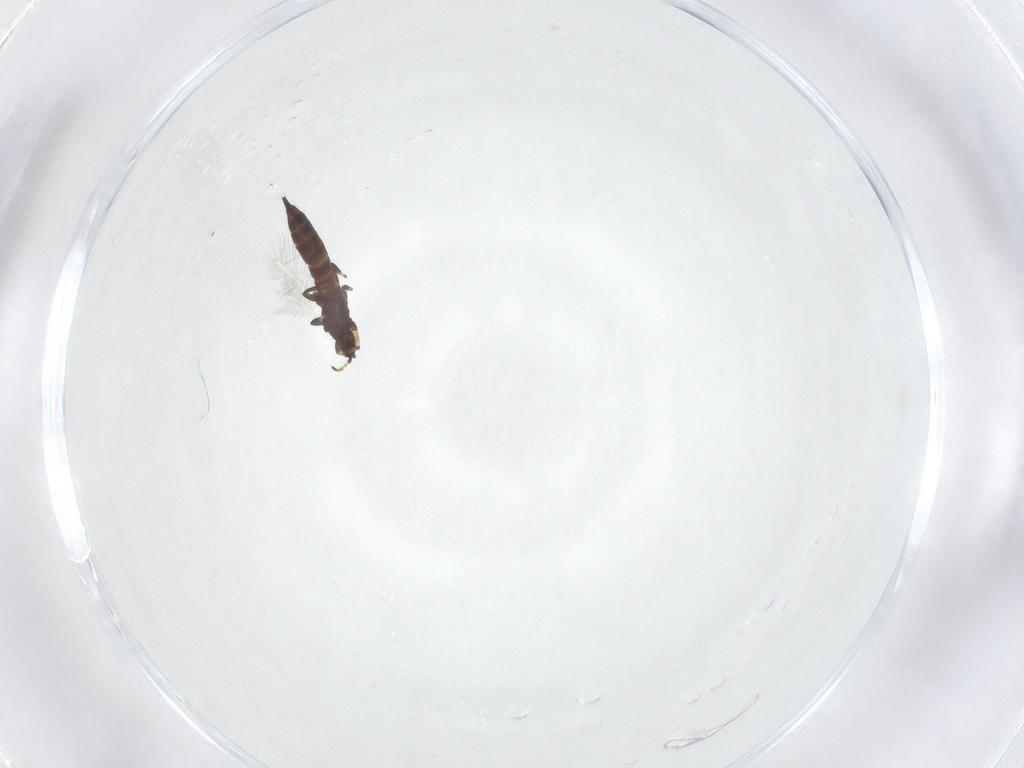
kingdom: Animalia
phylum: Arthropoda
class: Insecta
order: Thysanoptera
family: Phlaeothripidae
